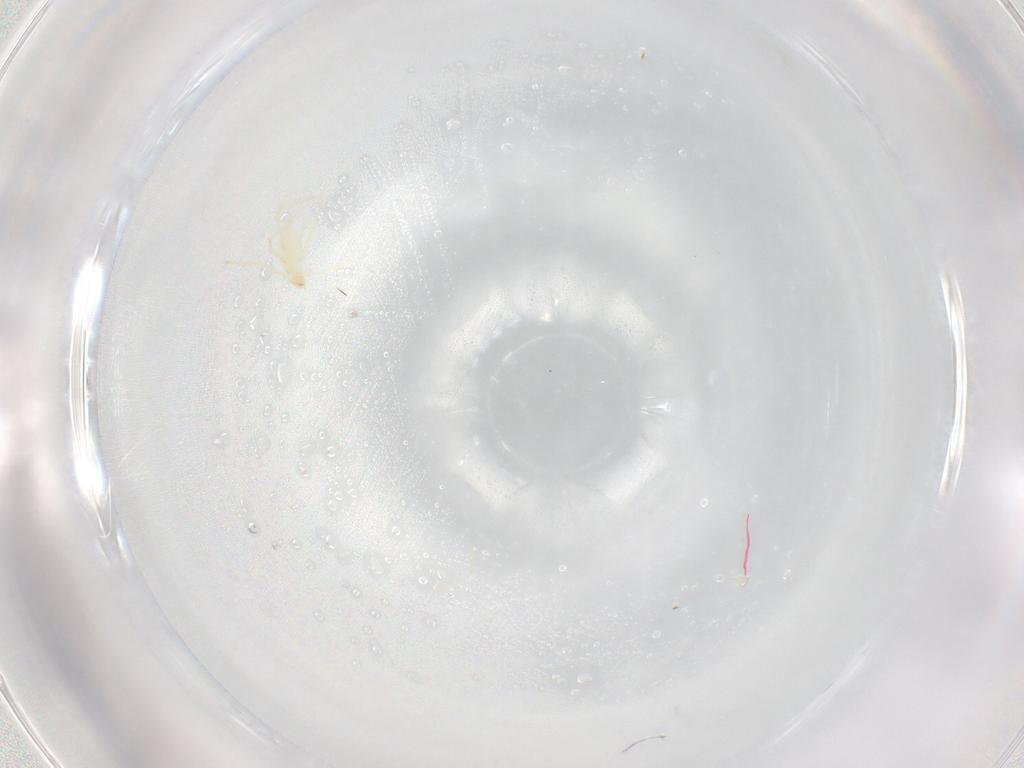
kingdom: Animalia
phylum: Arthropoda
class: Arachnida
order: Trombidiformes
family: Erythraeidae
